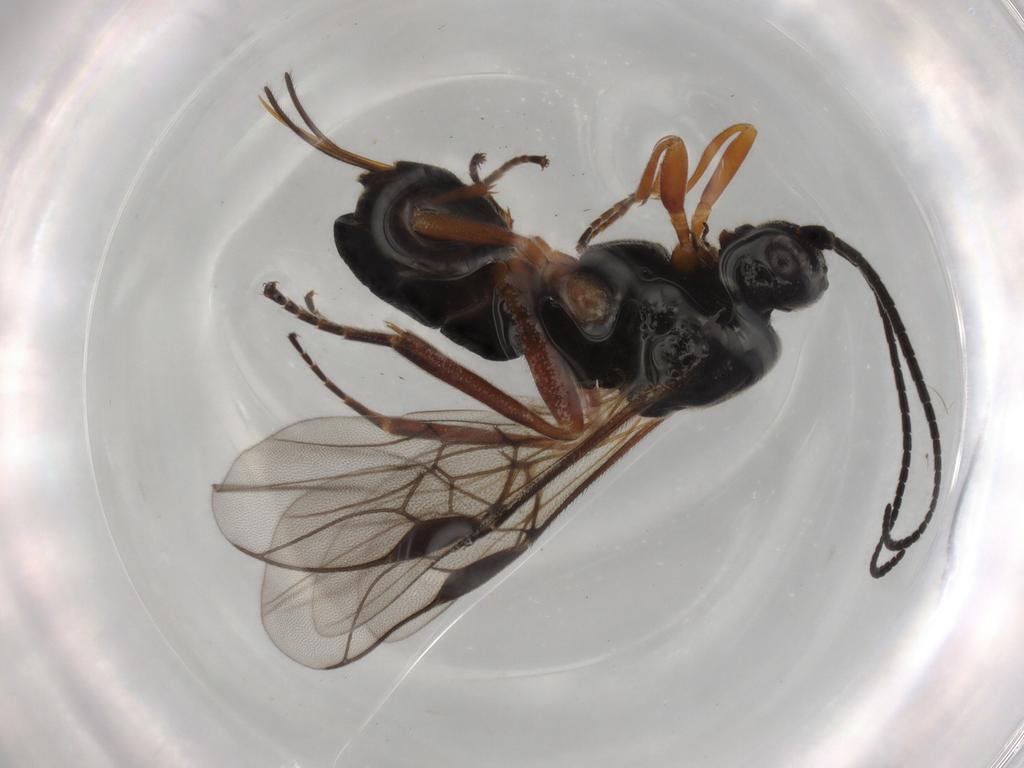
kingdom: Animalia
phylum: Arthropoda
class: Insecta
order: Hymenoptera
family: Braconidae
